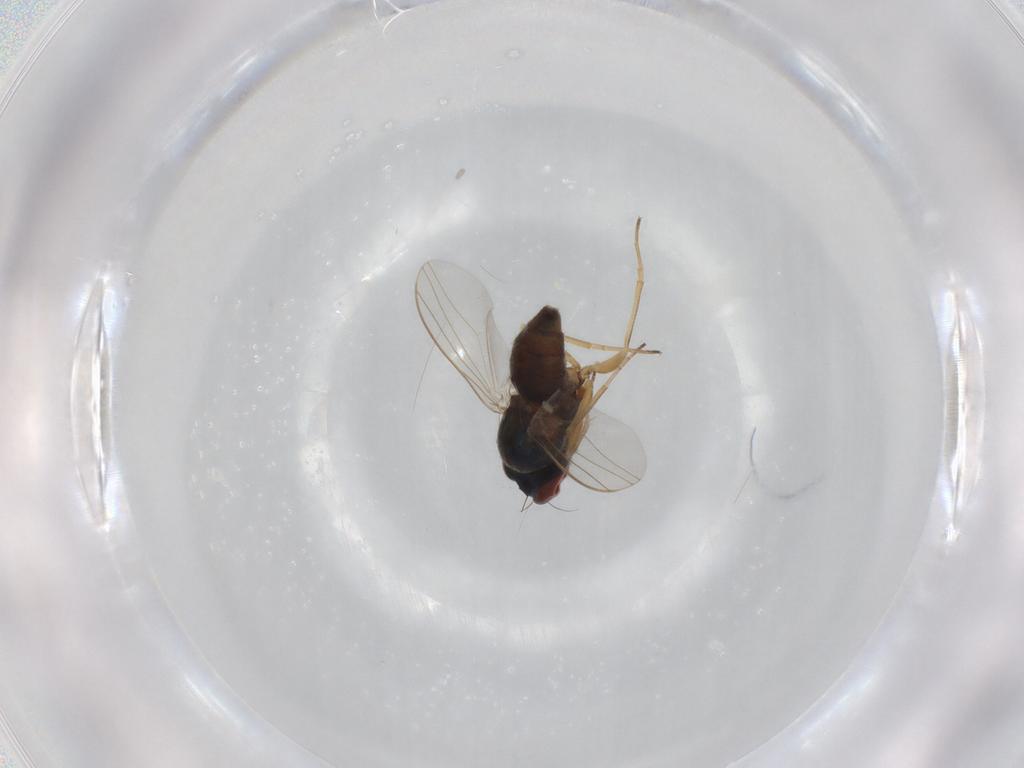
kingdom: Animalia
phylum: Arthropoda
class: Insecta
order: Diptera
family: Dolichopodidae
